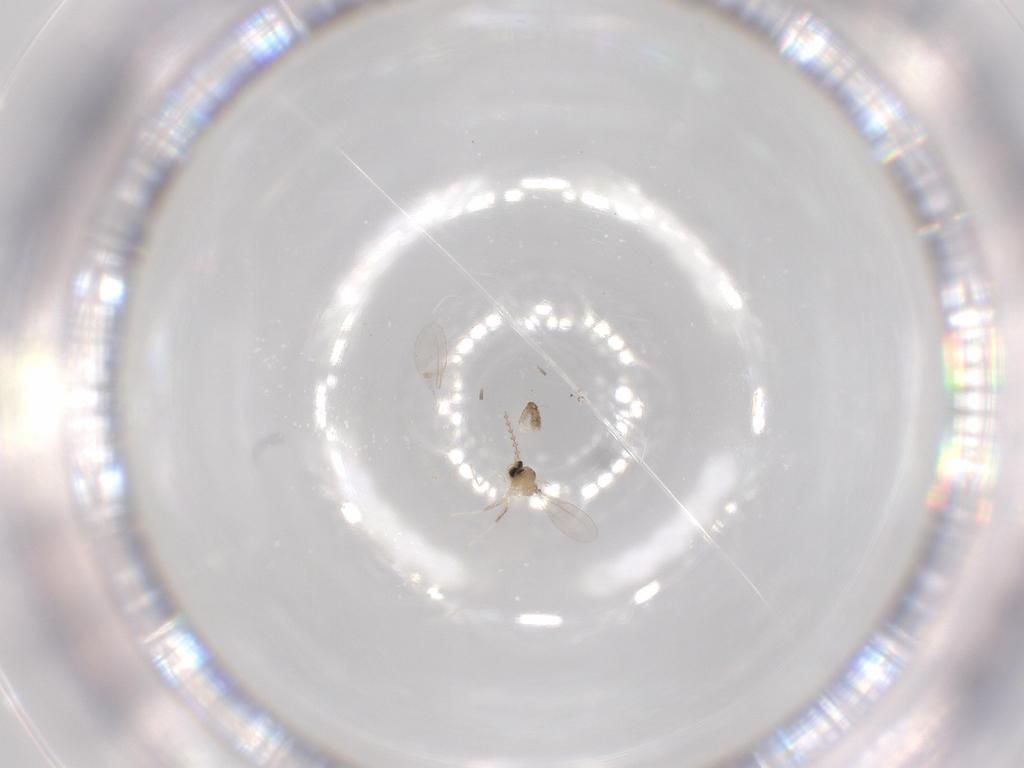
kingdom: Animalia
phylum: Arthropoda
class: Insecta
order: Diptera
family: Cecidomyiidae
